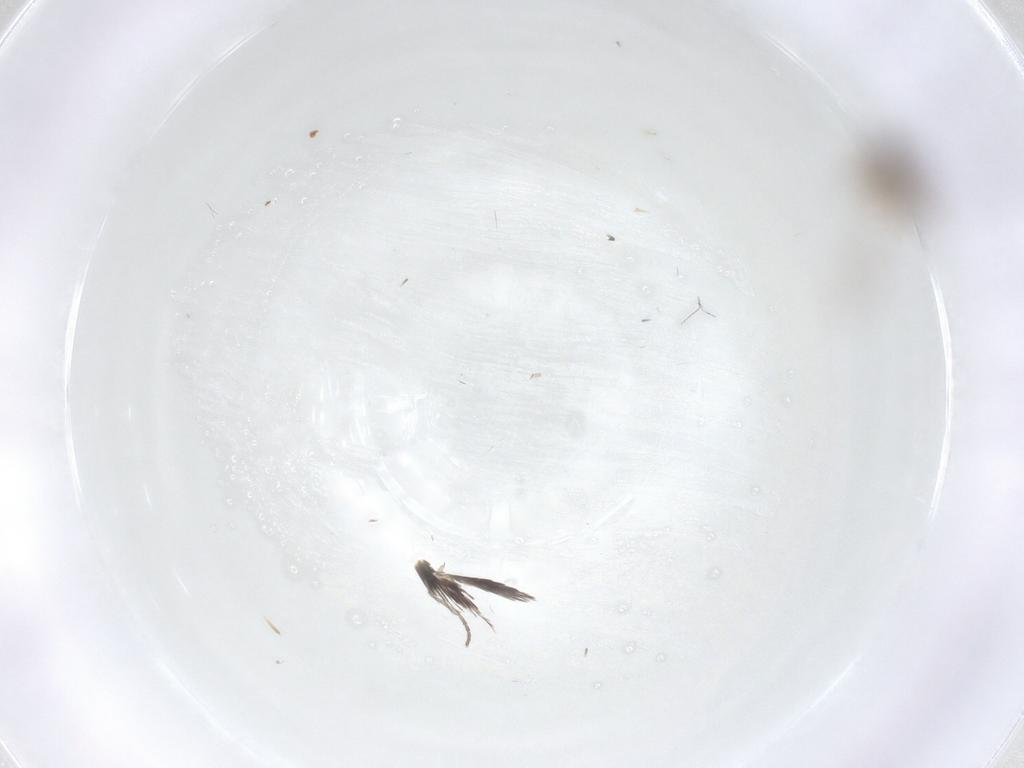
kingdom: Animalia
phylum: Arthropoda
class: Insecta
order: Diptera
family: Chironomidae
